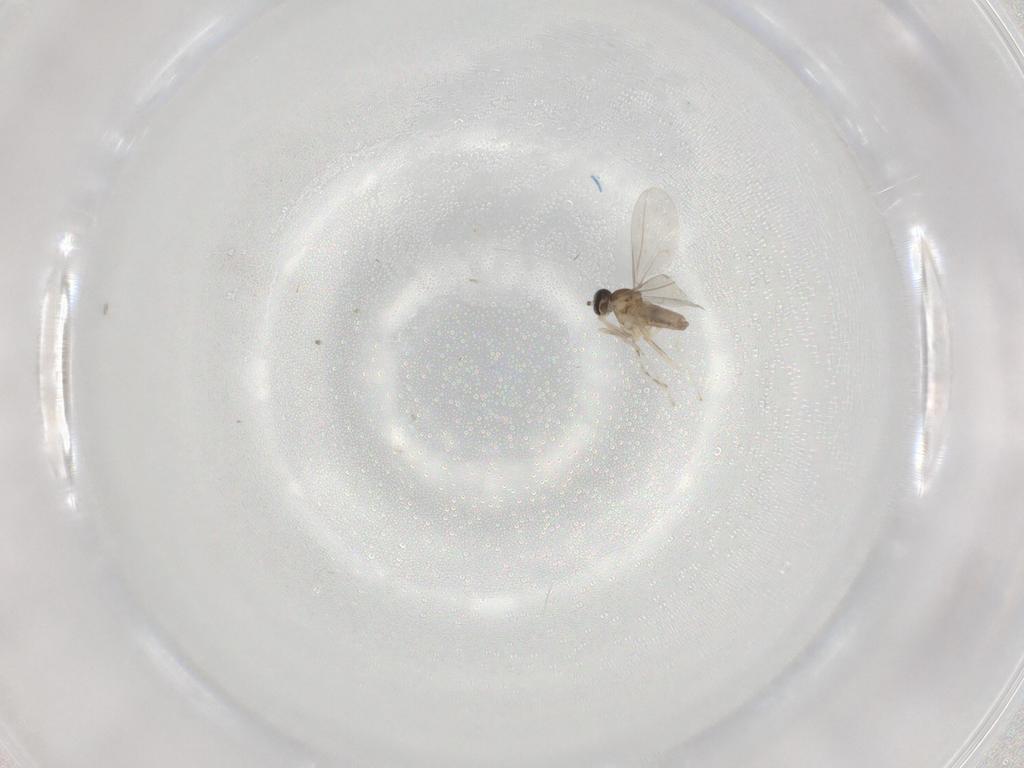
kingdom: Animalia
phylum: Arthropoda
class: Insecta
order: Diptera
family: Cecidomyiidae
